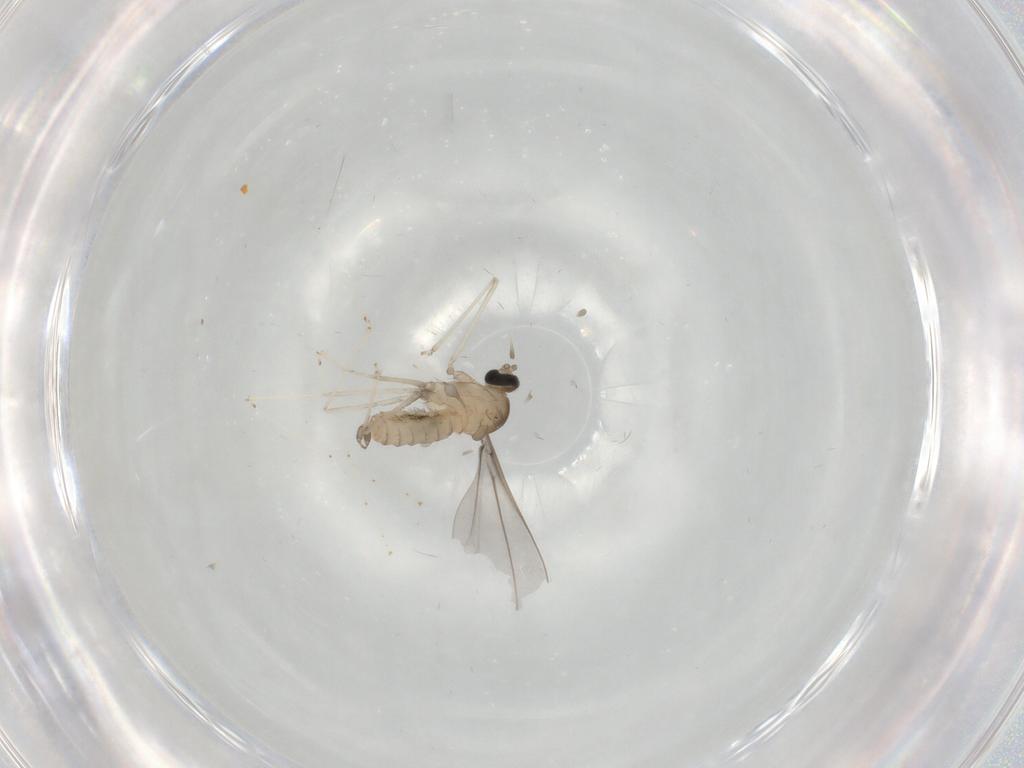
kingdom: Animalia
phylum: Arthropoda
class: Insecta
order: Diptera
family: Cecidomyiidae
